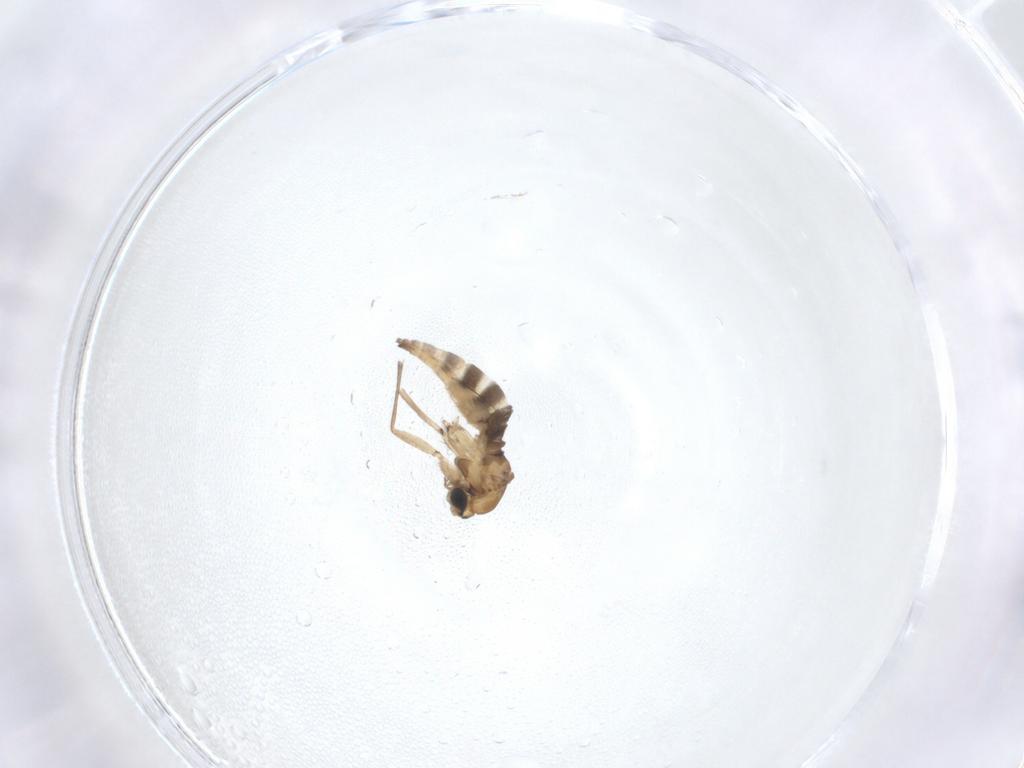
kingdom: Animalia
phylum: Arthropoda
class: Insecta
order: Diptera
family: Sciaridae
